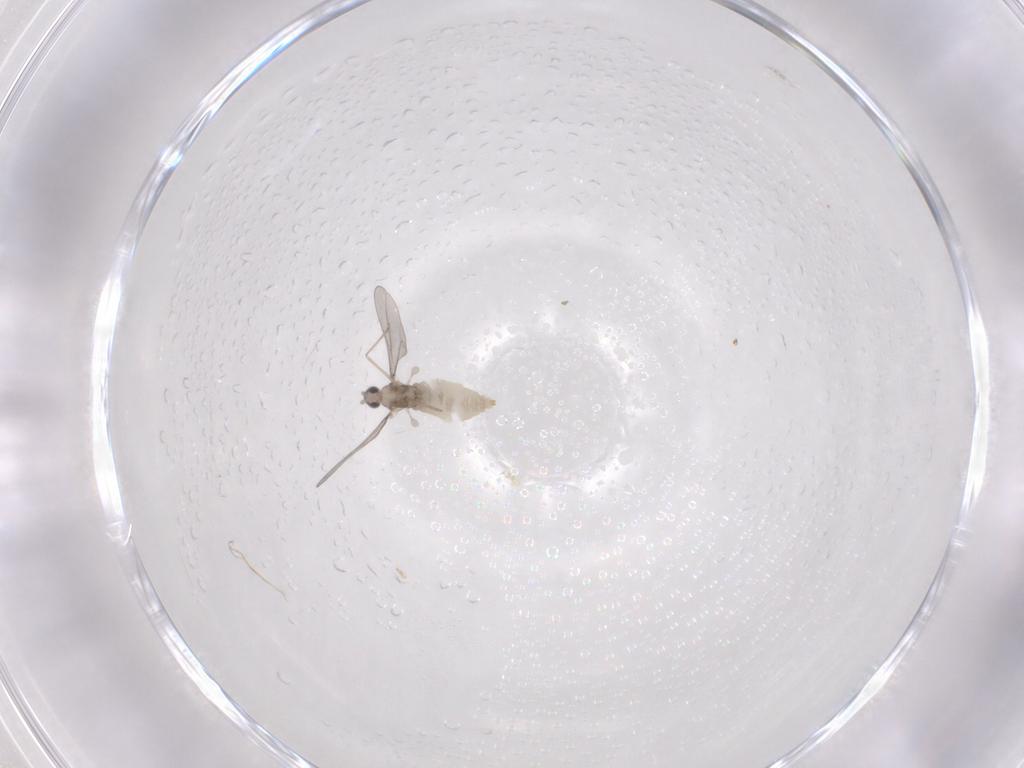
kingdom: Animalia
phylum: Arthropoda
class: Insecta
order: Diptera
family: Cecidomyiidae
